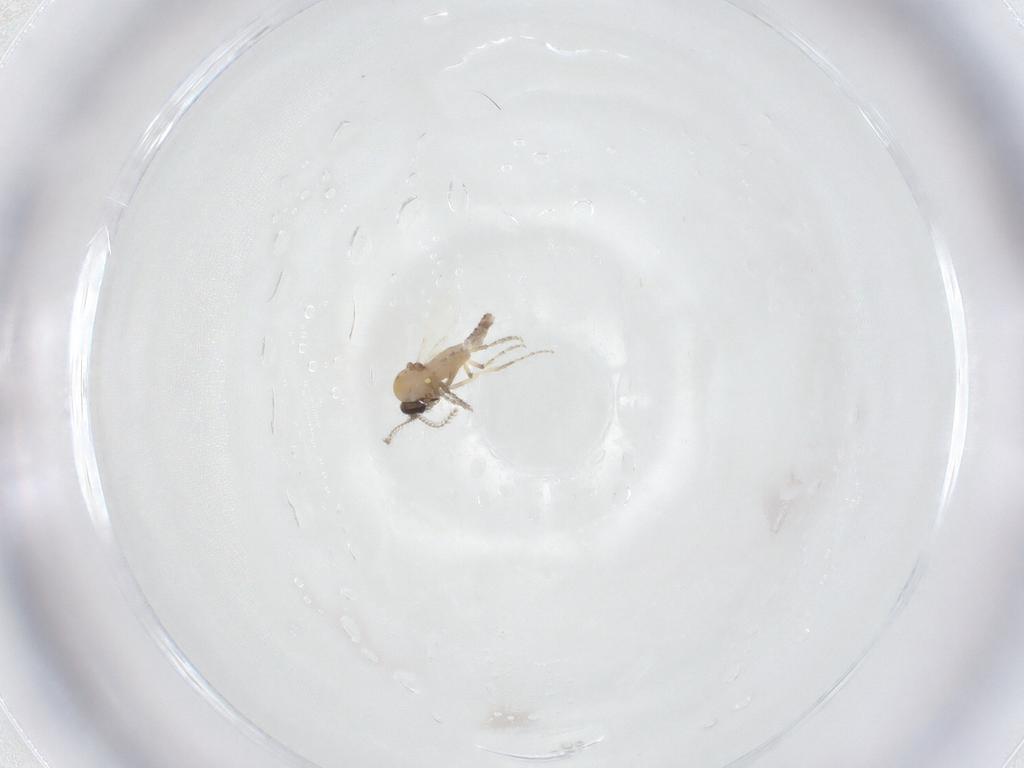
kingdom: Animalia
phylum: Arthropoda
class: Insecta
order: Diptera
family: Ceratopogonidae
